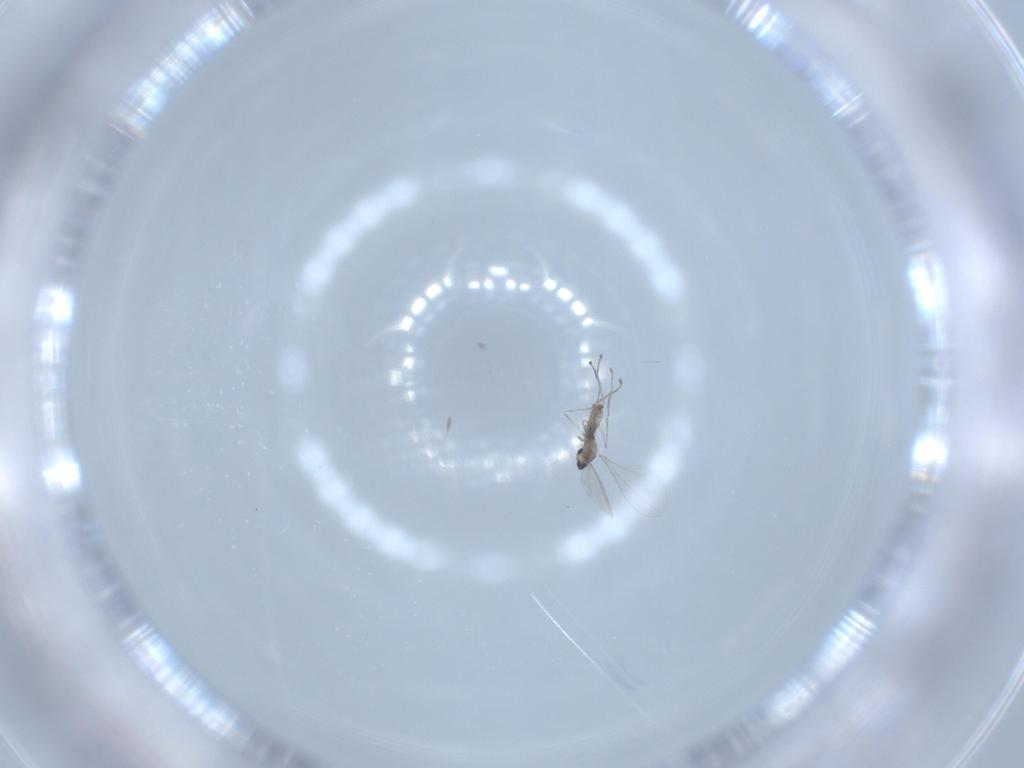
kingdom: Animalia
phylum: Arthropoda
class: Insecta
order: Diptera
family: Cecidomyiidae
